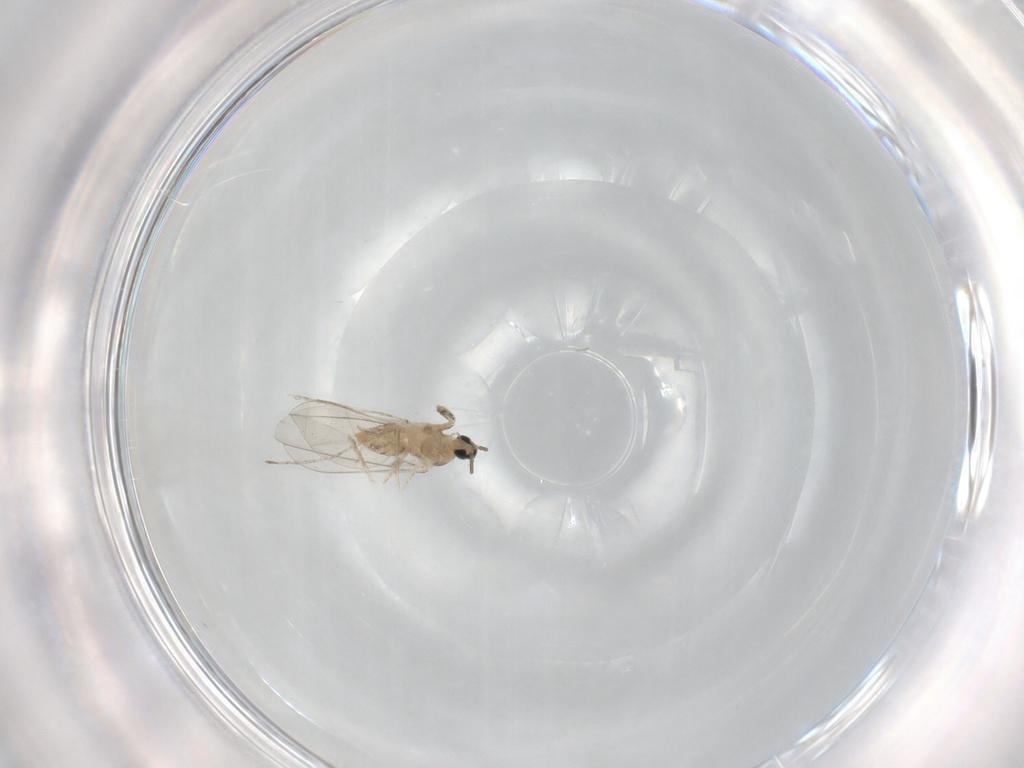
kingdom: Animalia
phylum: Arthropoda
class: Insecta
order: Diptera
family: Cecidomyiidae
